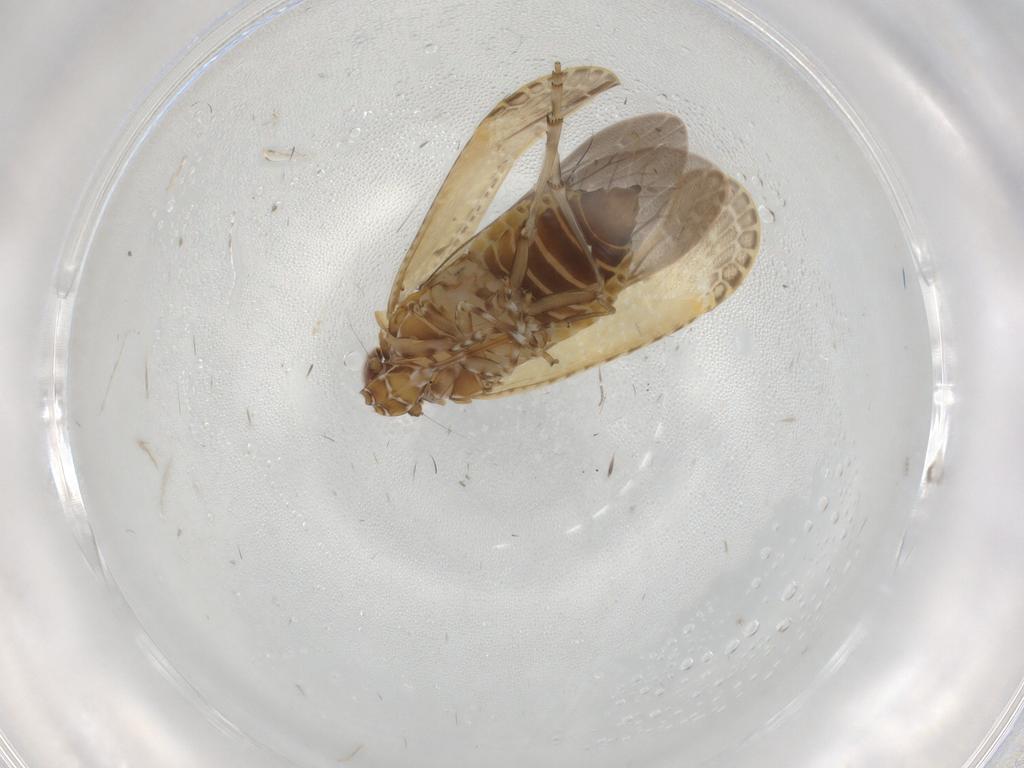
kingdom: Animalia
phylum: Arthropoda
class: Insecta
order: Hemiptera
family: Achilidae
